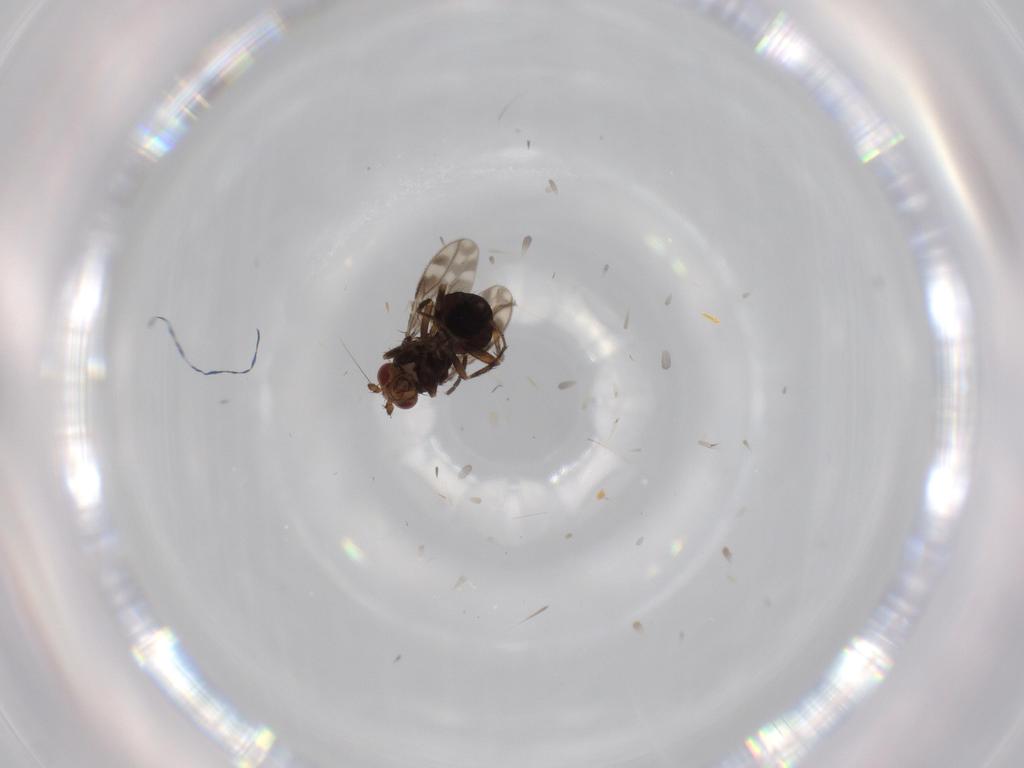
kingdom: Animalia
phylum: Arthropoda
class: Insecta
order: Diptera
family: Sphaeroceridae
